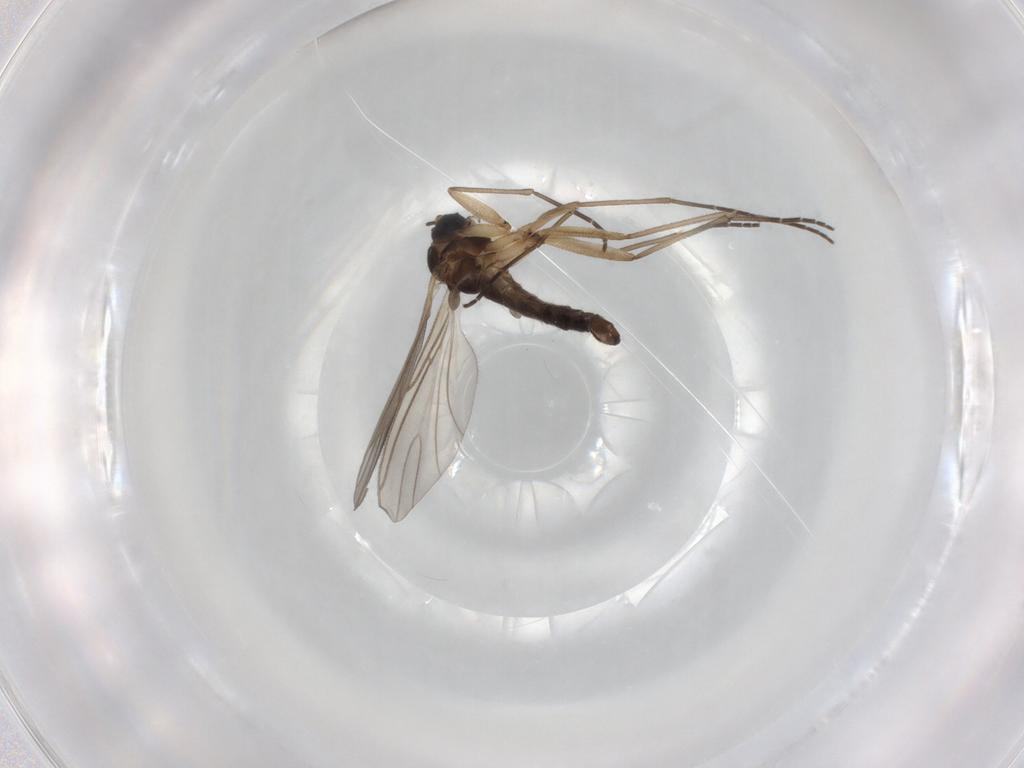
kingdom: Animalia
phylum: Arthropoda
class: Insecta
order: Diptera
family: Sciaridae
